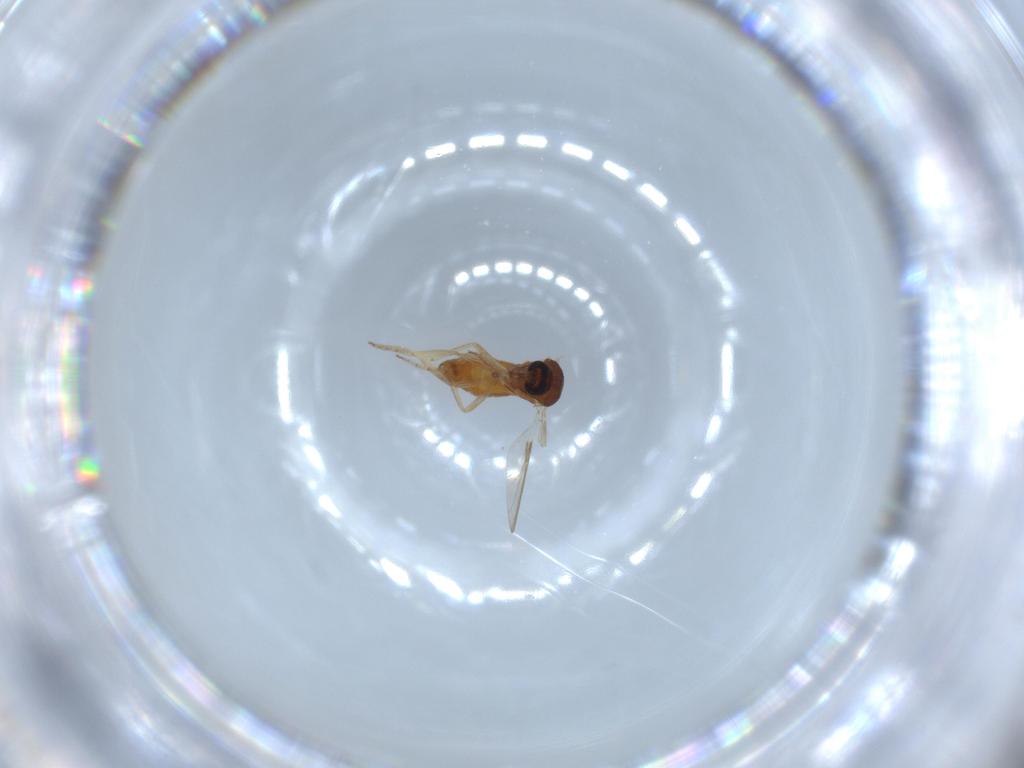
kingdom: Animalia
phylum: Arthropoda
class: Insecta
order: Diptera
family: Ceratopogonidae
